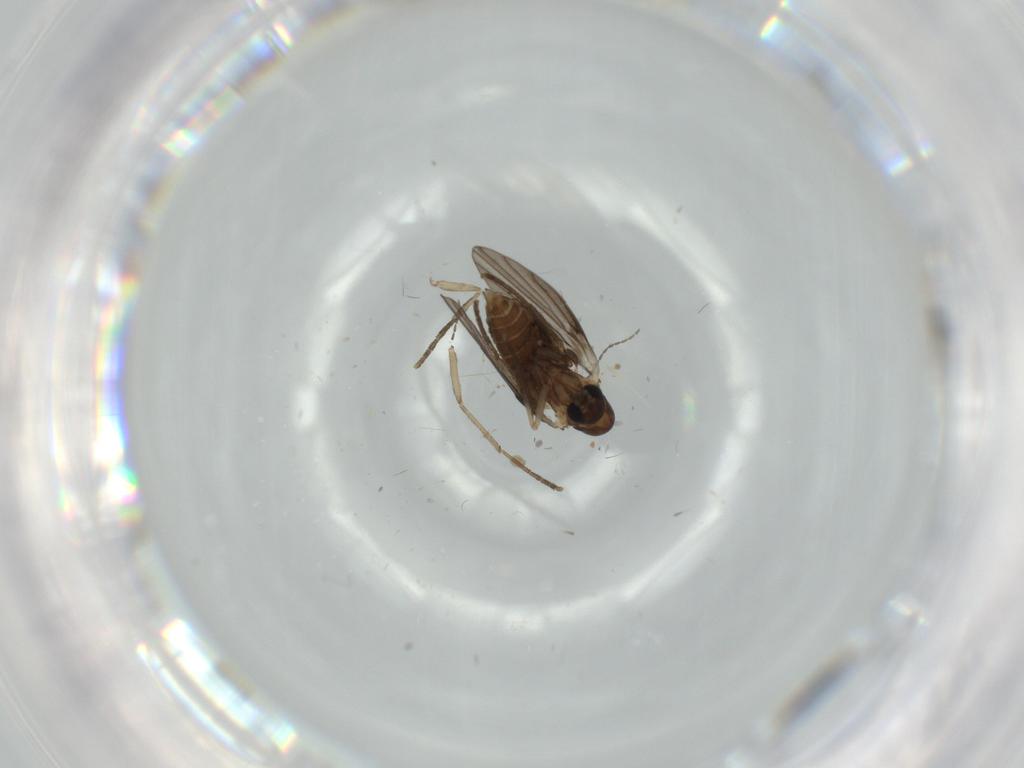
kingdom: Animalia
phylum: Arthropoda
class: Insecta
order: Diptera
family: Psychodidae
